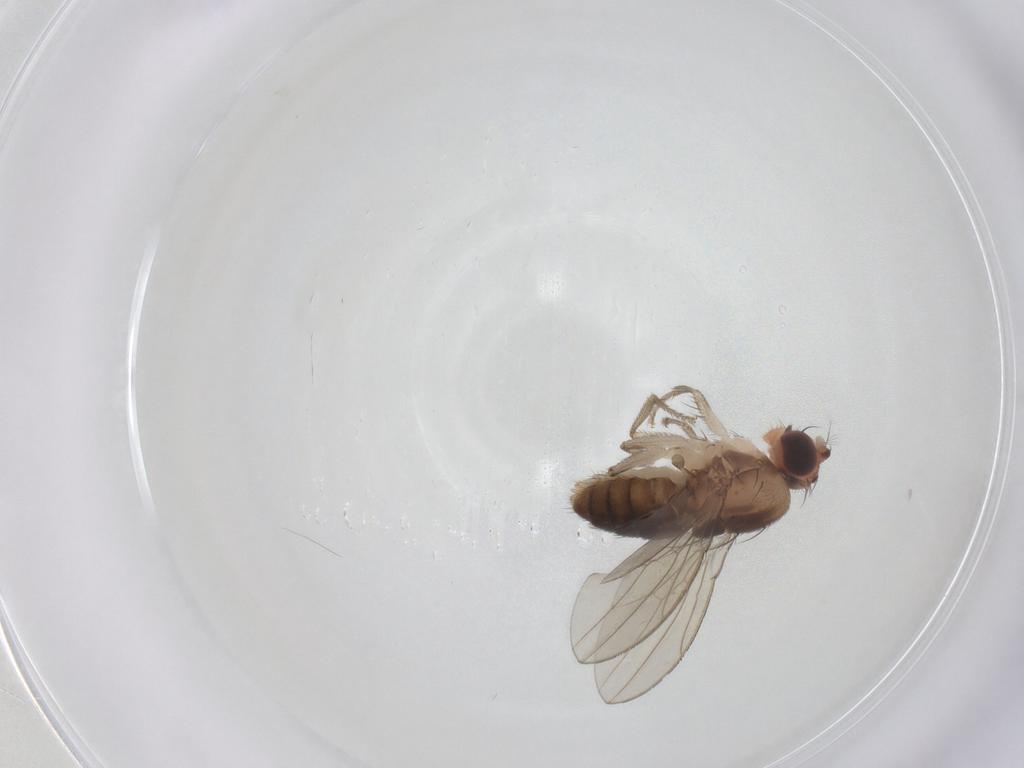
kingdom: Animalia
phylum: Arthropoda
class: Insecta
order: Diptera
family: Drosophilidae
